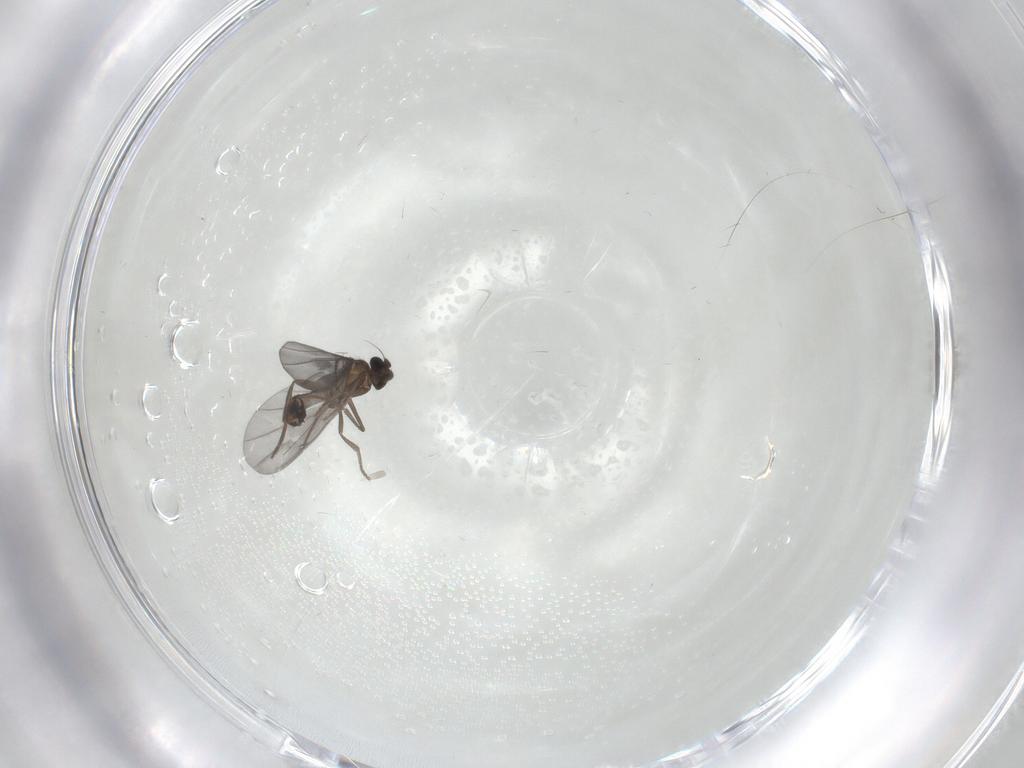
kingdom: Animalia
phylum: Arthropoda
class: Insecta
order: Diptera
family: Phoridae
